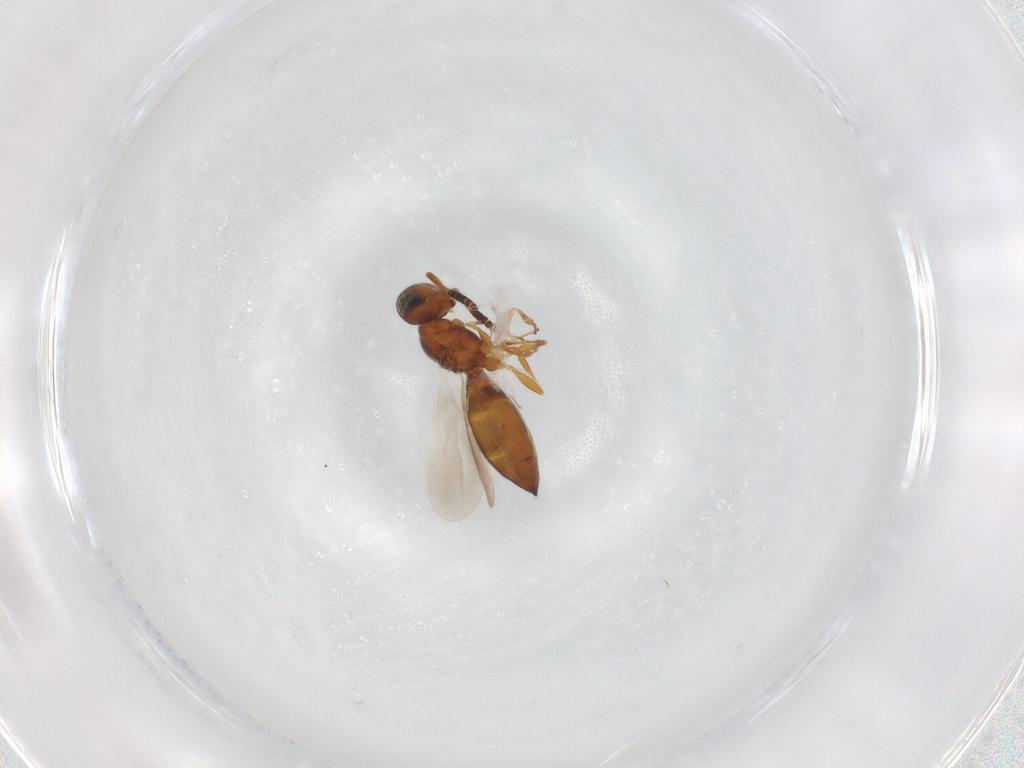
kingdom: Animalia
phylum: Arthropoda
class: Insecta
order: Hymenoptera
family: Scelionidae
